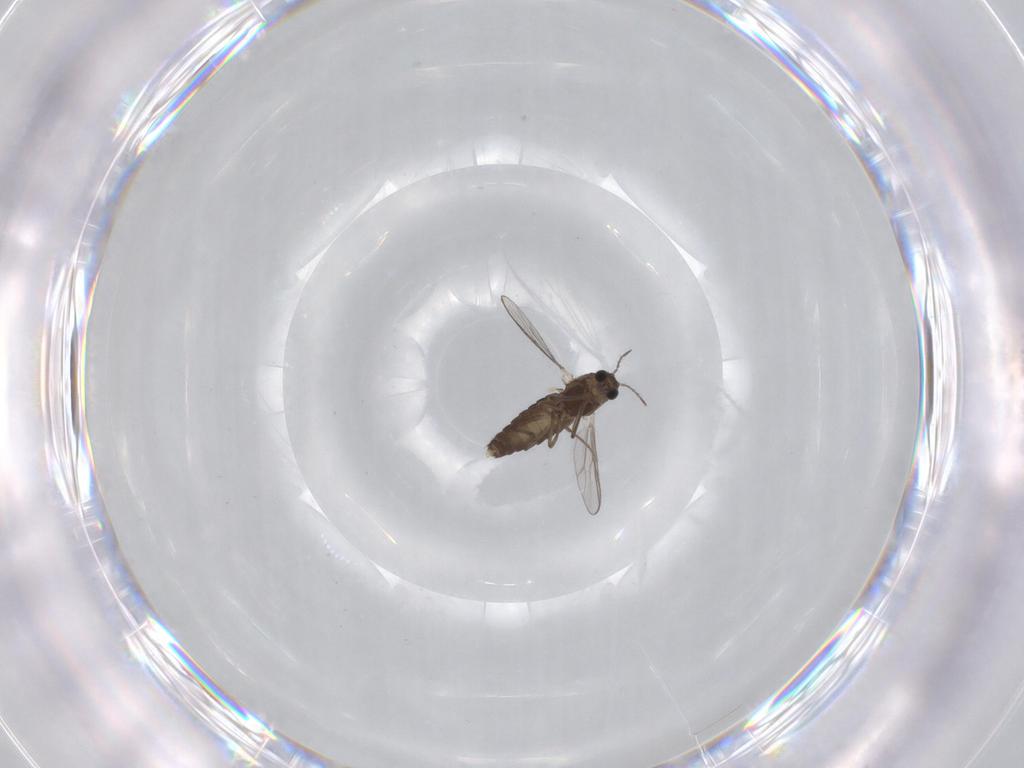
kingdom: Animalia
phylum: Arthropoda
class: Insecta
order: Diptera
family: Chironomidae
